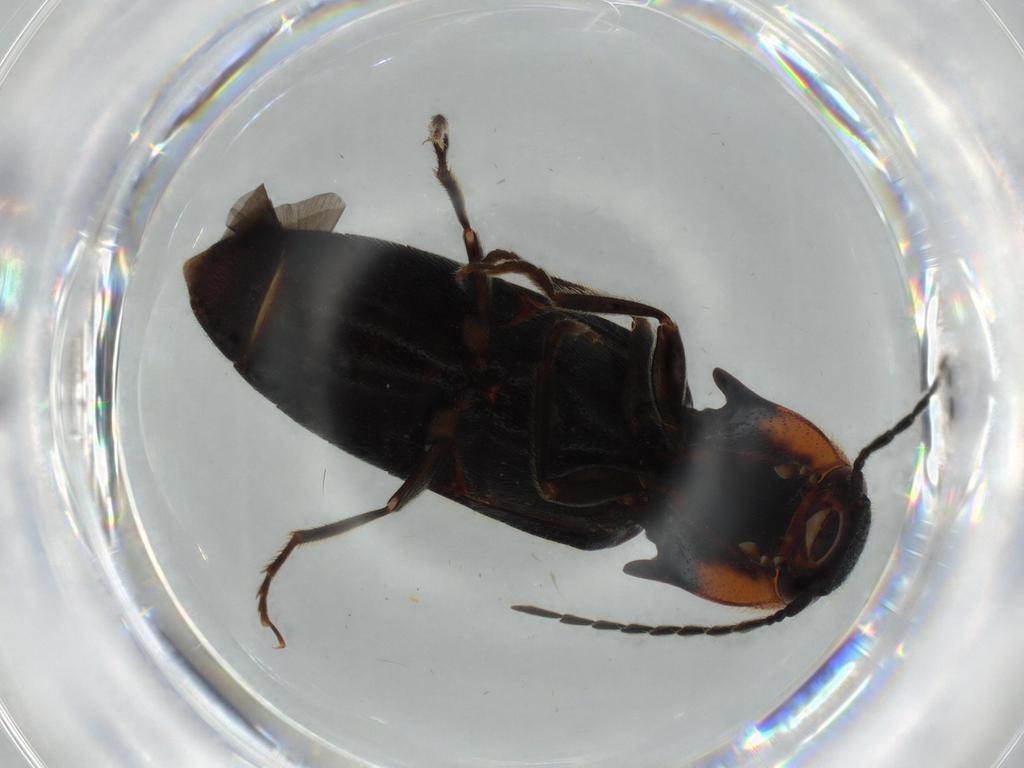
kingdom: Animalia
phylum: Arthropoda
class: Insecta
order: Coleoptera
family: Elateridae
